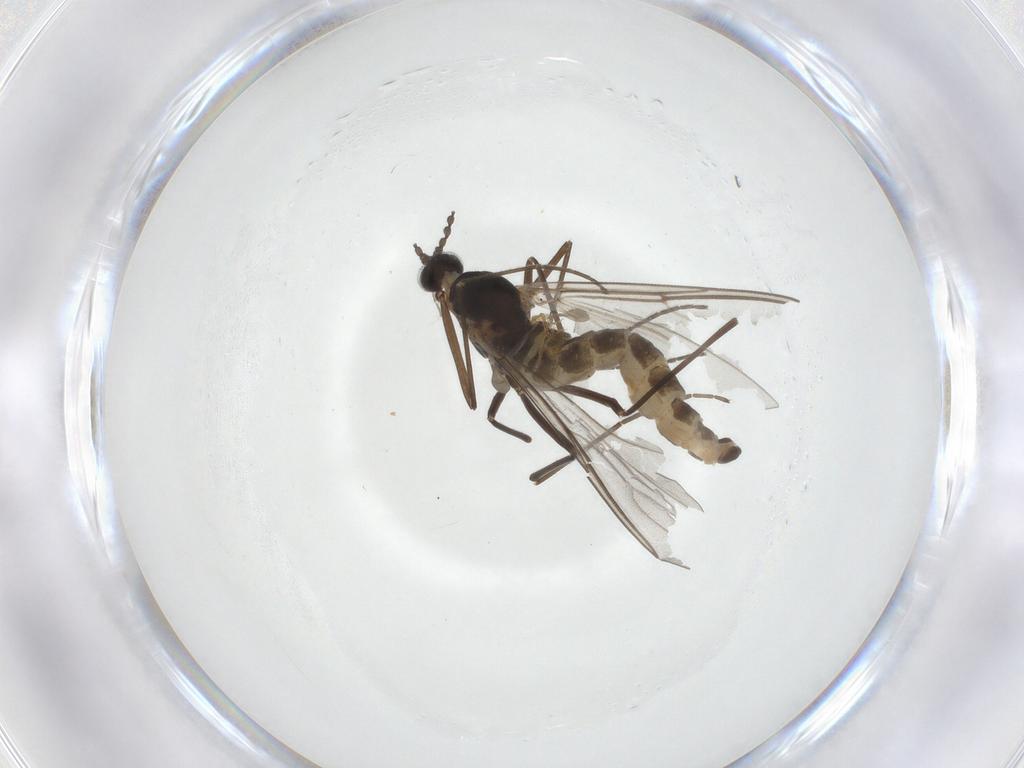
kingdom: Animalia
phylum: Arthropoda
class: Insecta
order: Diptera
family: Cecidomyiidae
